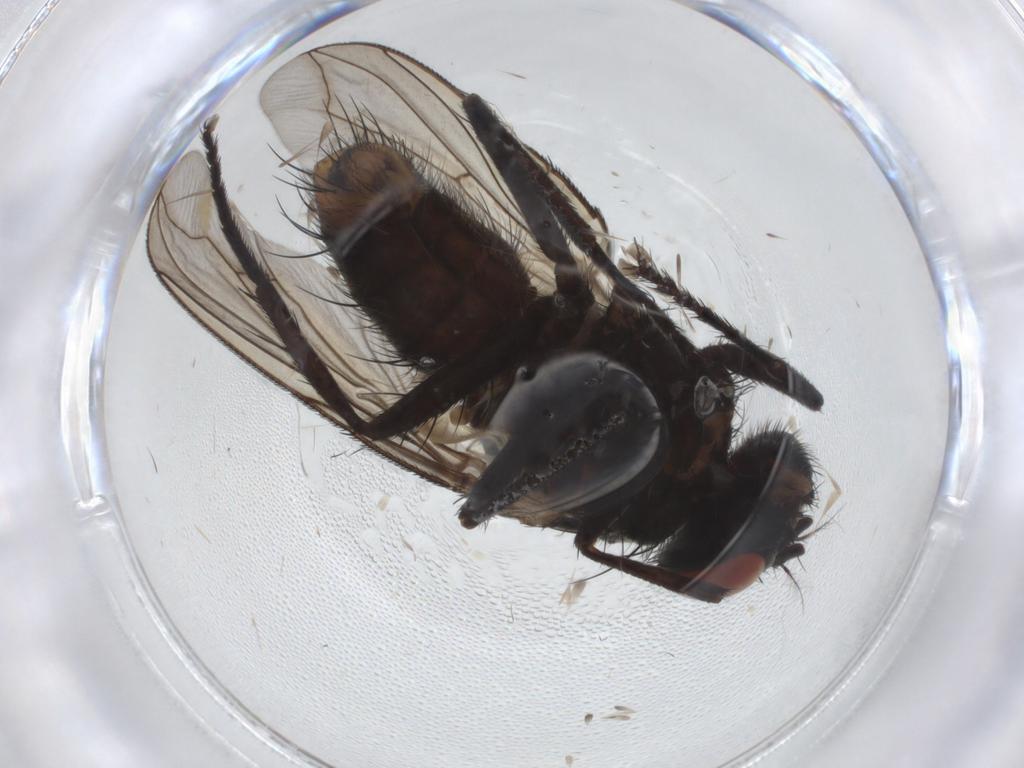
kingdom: Animalia
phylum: Arthropoda
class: Insecta
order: Diptera
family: Sarcophagidae
